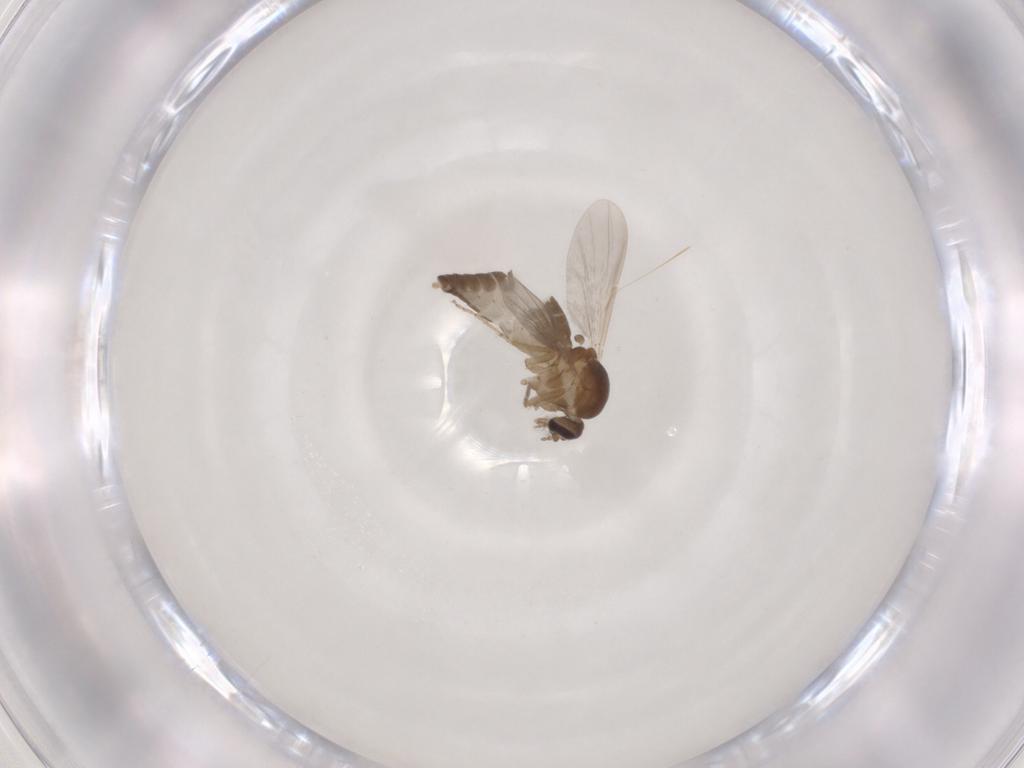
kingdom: Animalia
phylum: Arthropoda
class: Insecta
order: Diptera
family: Ceratopogonidae
